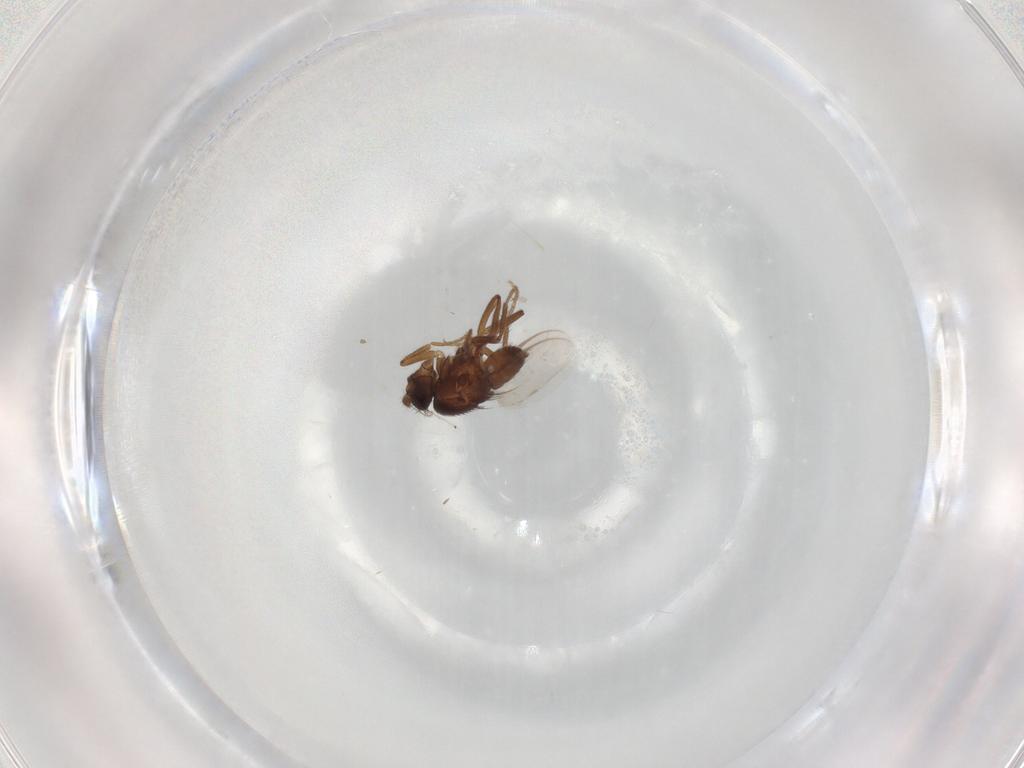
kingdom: Animalia
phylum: Arthropoda
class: Insecta
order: Diptera
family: Sphaeroceridae
